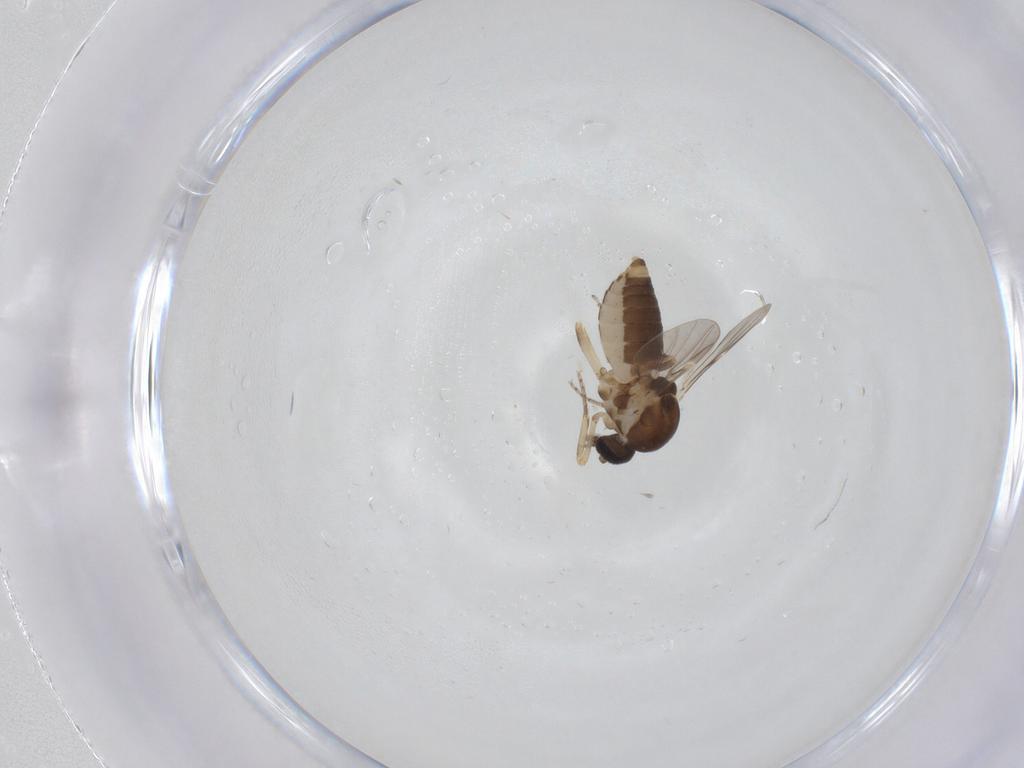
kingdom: Animalia
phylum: Arthropoda
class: Insecta
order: Diptera
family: Ceratopogonidae
